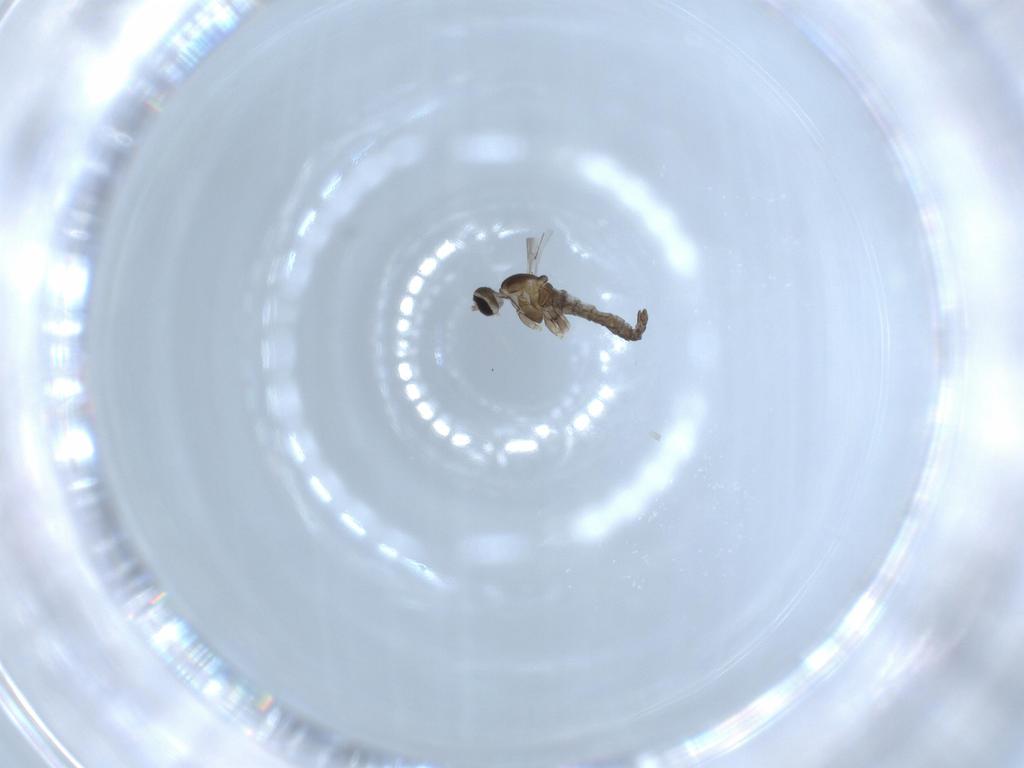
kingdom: Animalia
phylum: Arthropoda
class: Insecta
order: Diptera
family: Cecidomyiidae
